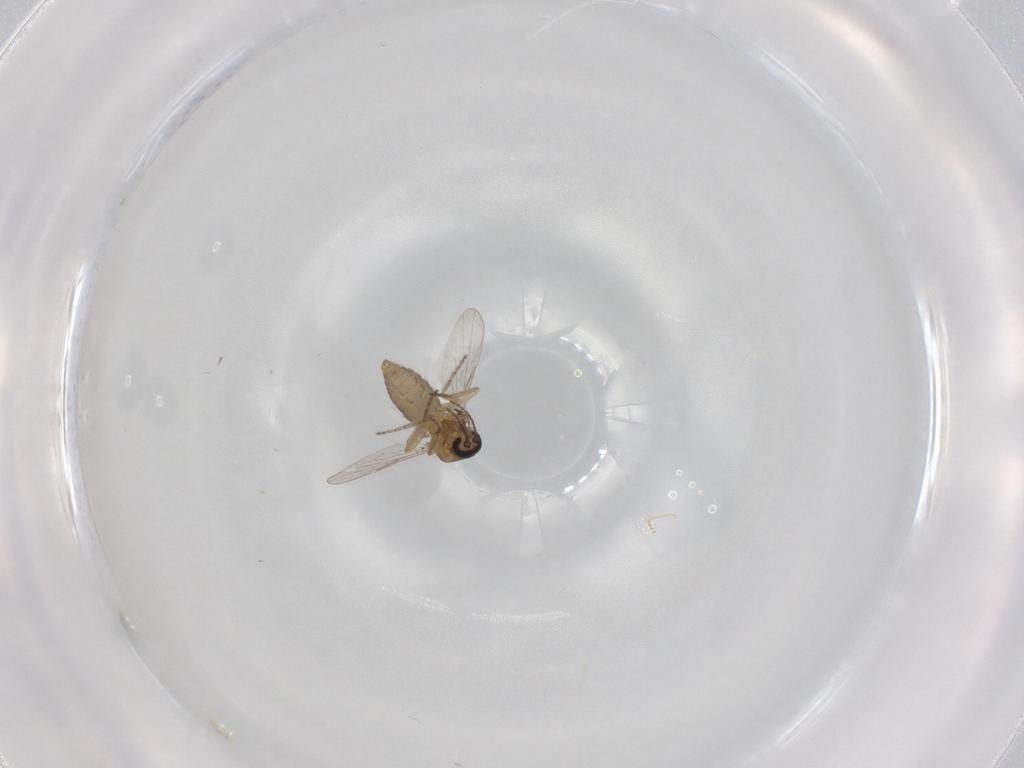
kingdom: Animalia
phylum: Arthropoda
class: Insecta
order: Diptera
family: Ceratopogonidae
